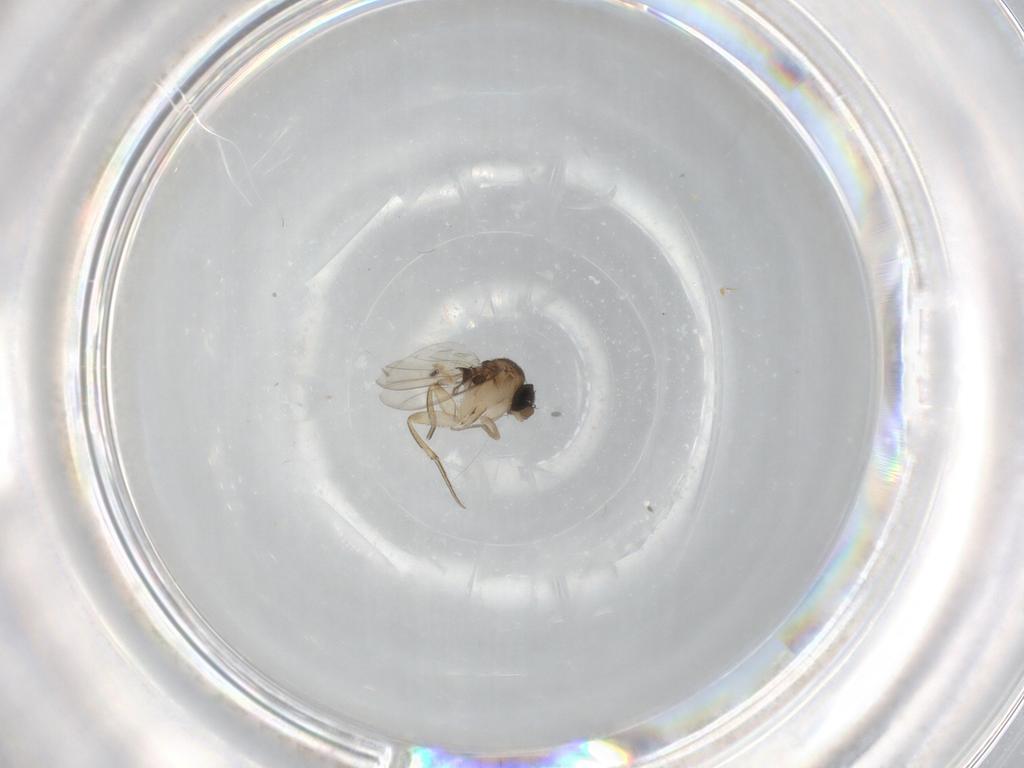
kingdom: Animalia
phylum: Arthropoda
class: Insecta
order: Diptera
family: Sciaridae
